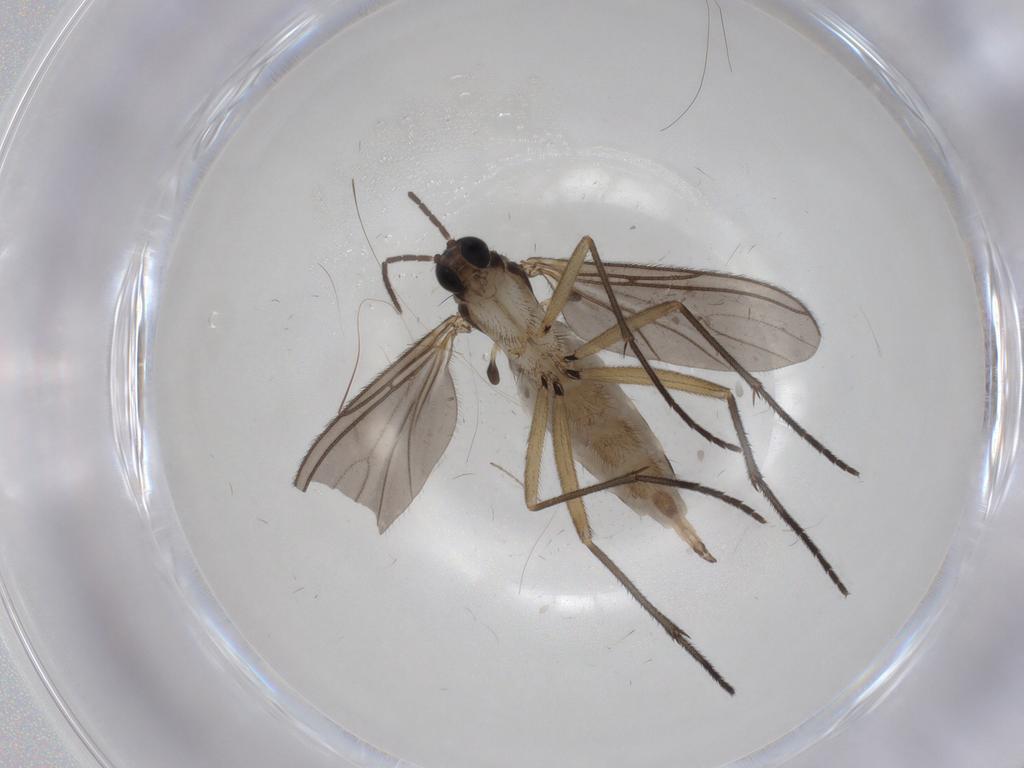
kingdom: Animalia
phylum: Arthropoda
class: Insecta
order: Diptera
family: Sciaridae
